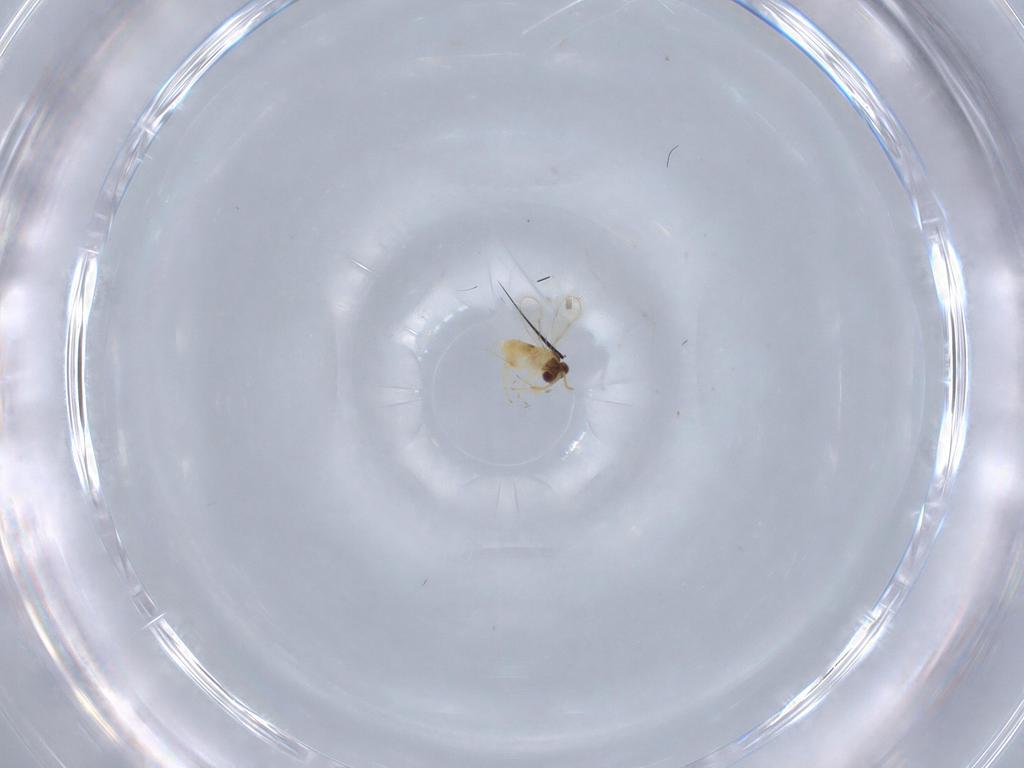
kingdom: Animalia
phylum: Arthropoda
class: Insecta
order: Hymenoptera
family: Aphelinidae
